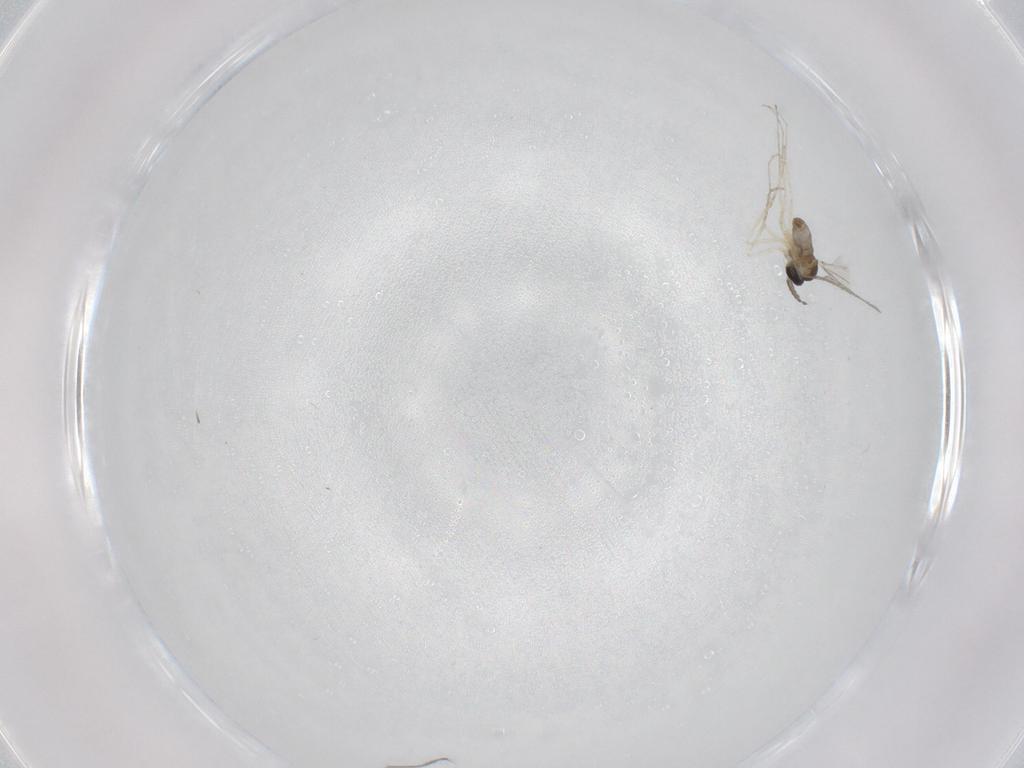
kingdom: Animalia
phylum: Arthropoda
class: Insecta
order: Diptera
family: Cecidomyiidae
